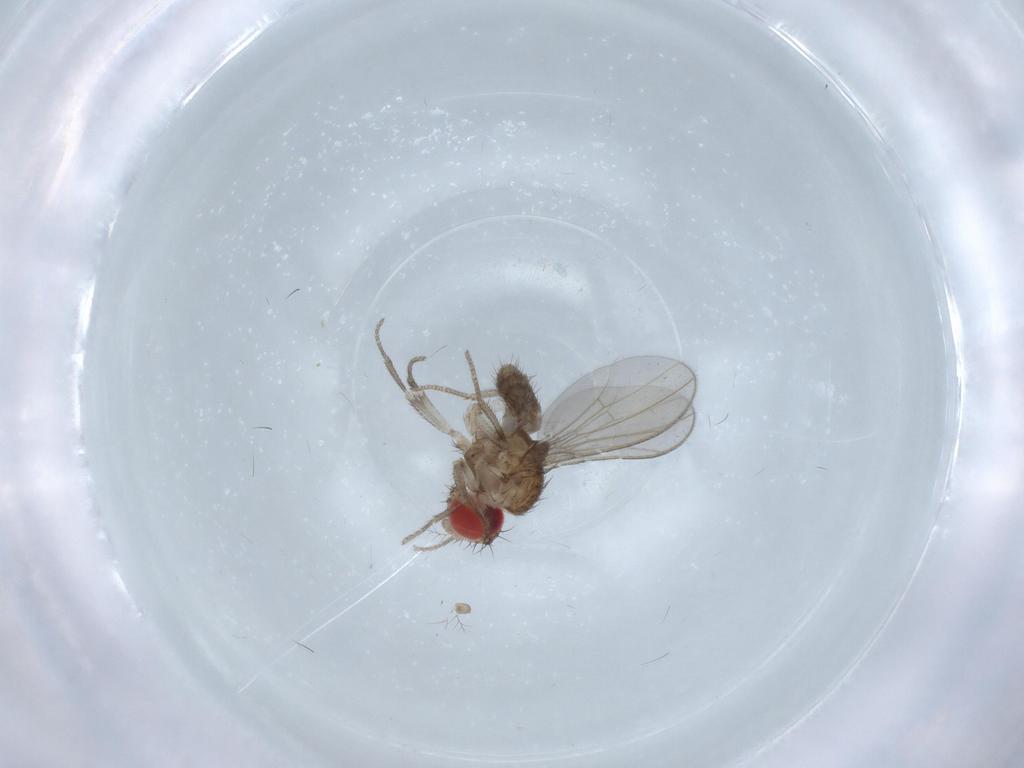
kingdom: Animalia
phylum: Arthropoda
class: Insecta
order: Diptera
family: Drosophilidae
